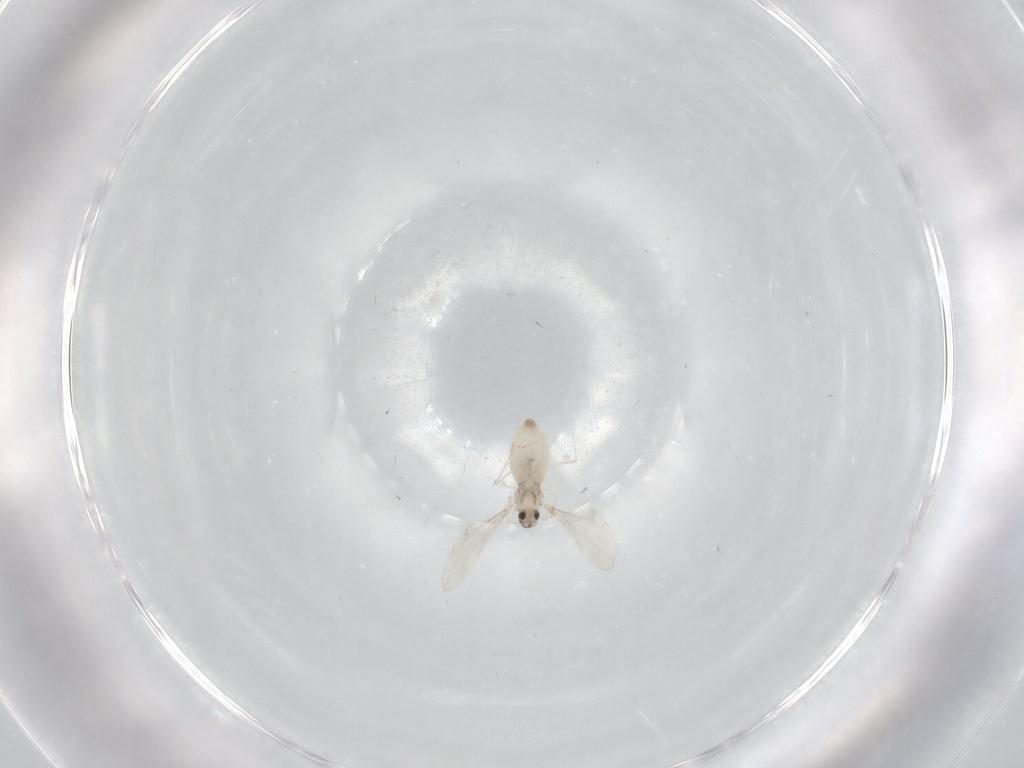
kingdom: Animalia
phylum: Arthropoda
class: Insecta
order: Diptera
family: Cecidomyiidae
